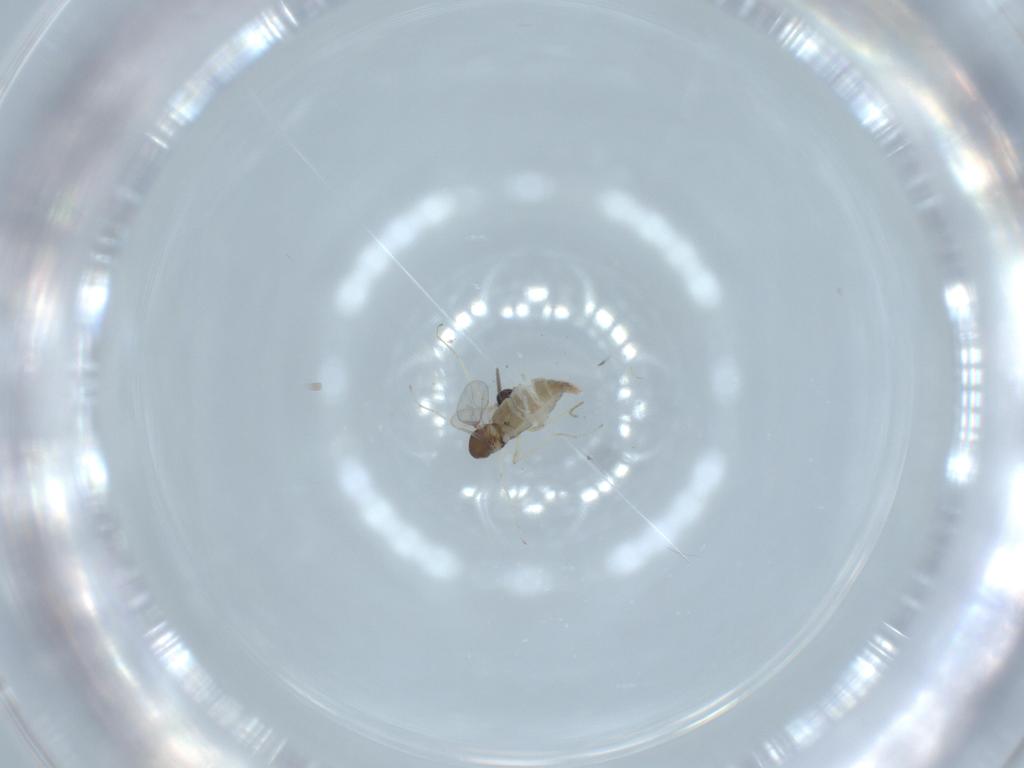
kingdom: Animalia
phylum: Arthropoda
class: Insecta
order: Diptera
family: Cecidomyiidae
